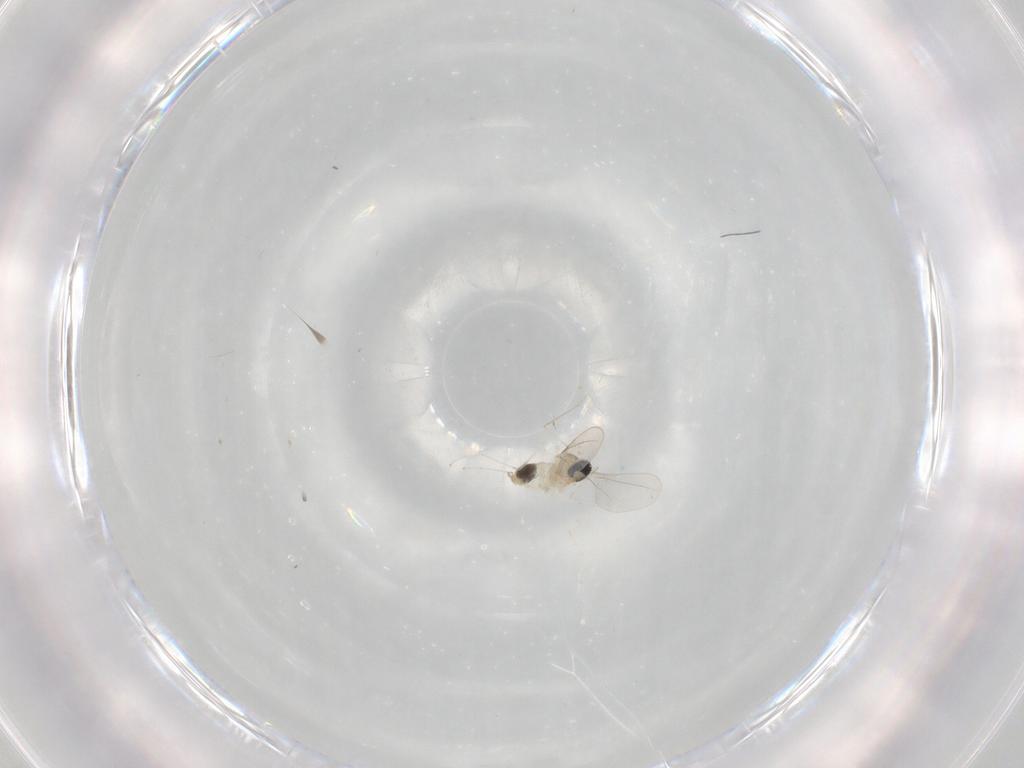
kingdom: Animalia
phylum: Arthropoda
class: Insecta
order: Diptera
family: Cecidomyiidae
